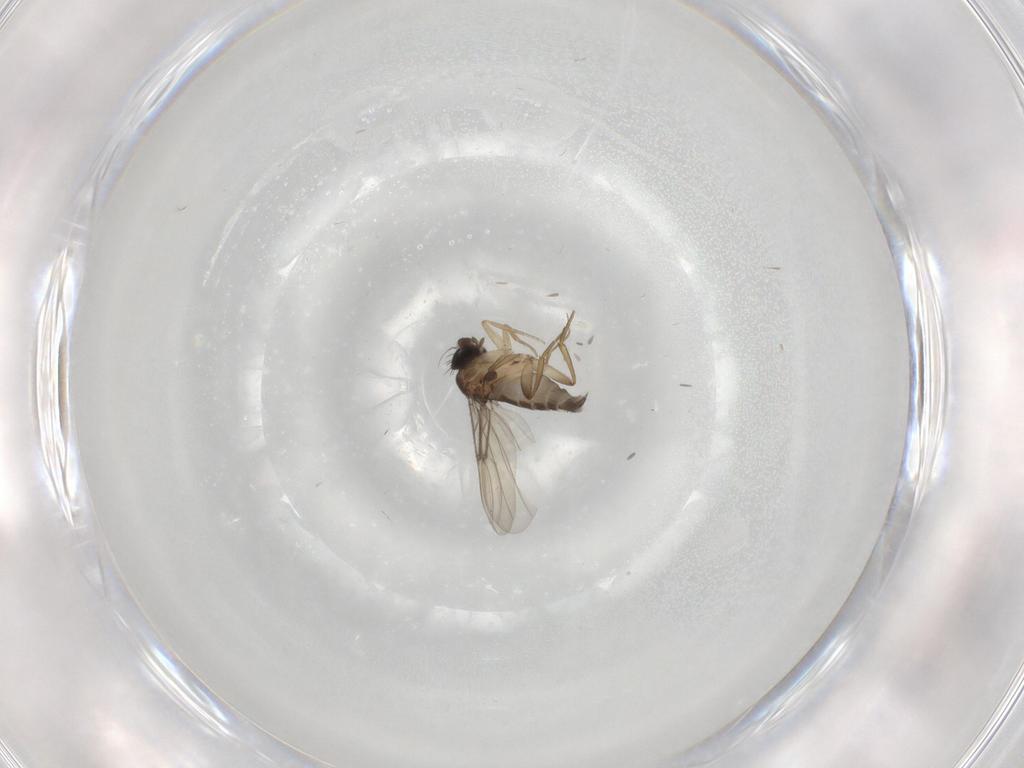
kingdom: Animalia
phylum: Arthropoda
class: Insecta
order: Diptera
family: Phoridae
